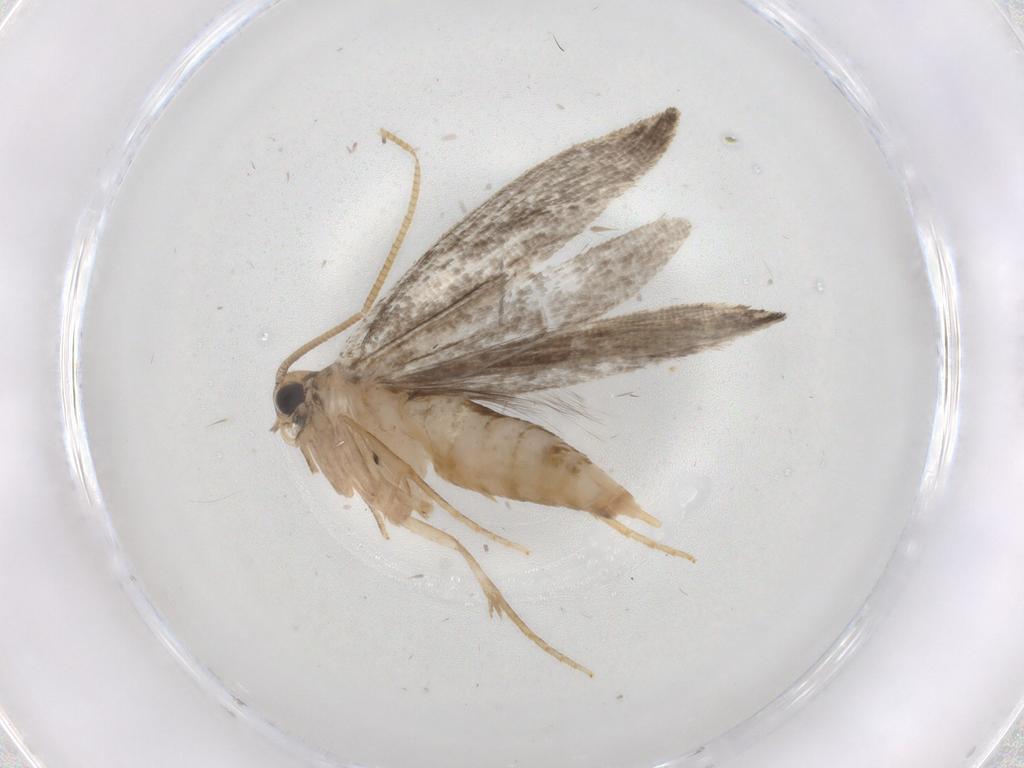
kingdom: Animalia
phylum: Arthropoda
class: Insecta
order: Lepidoptera
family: Tineidae
